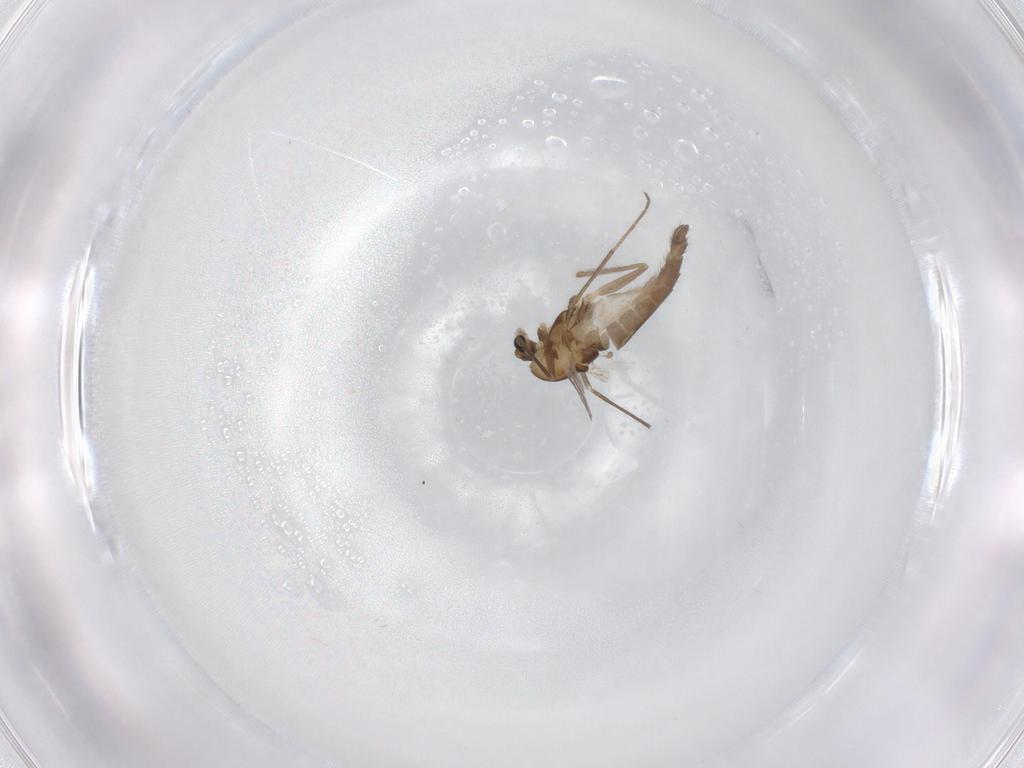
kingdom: Animalia
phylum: Arthropoda
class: Insecta
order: Diptera
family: Chironomidae
